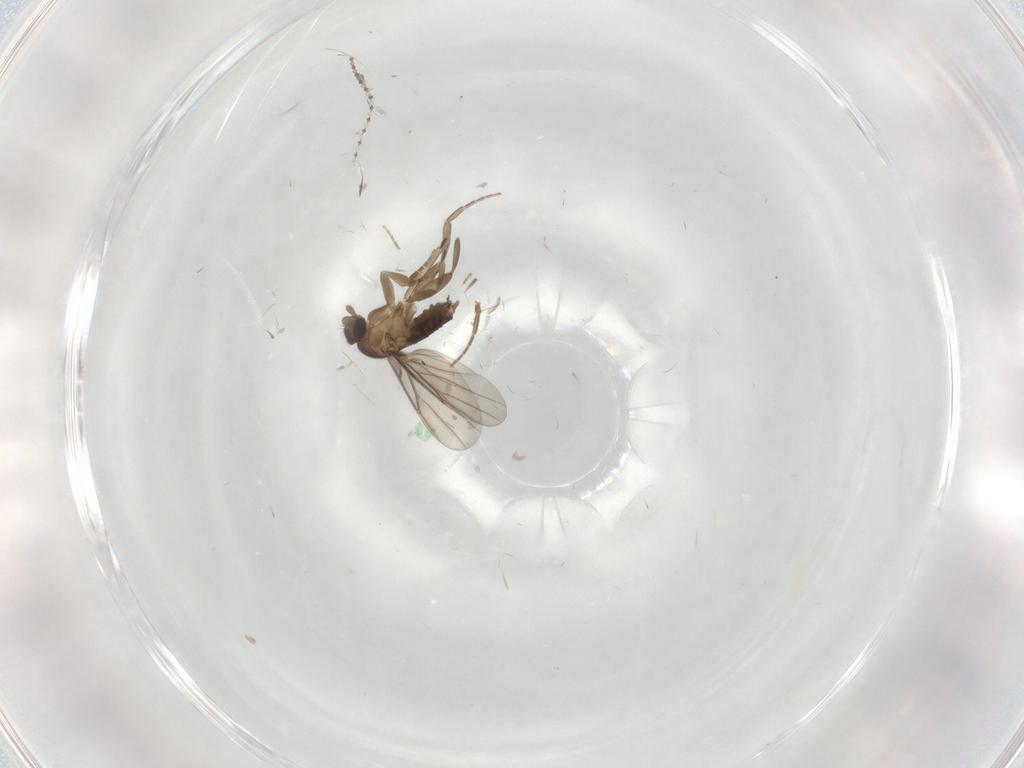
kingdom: Animalia
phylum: Arthropoda
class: Insecta
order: Diptera
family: Phoridae
